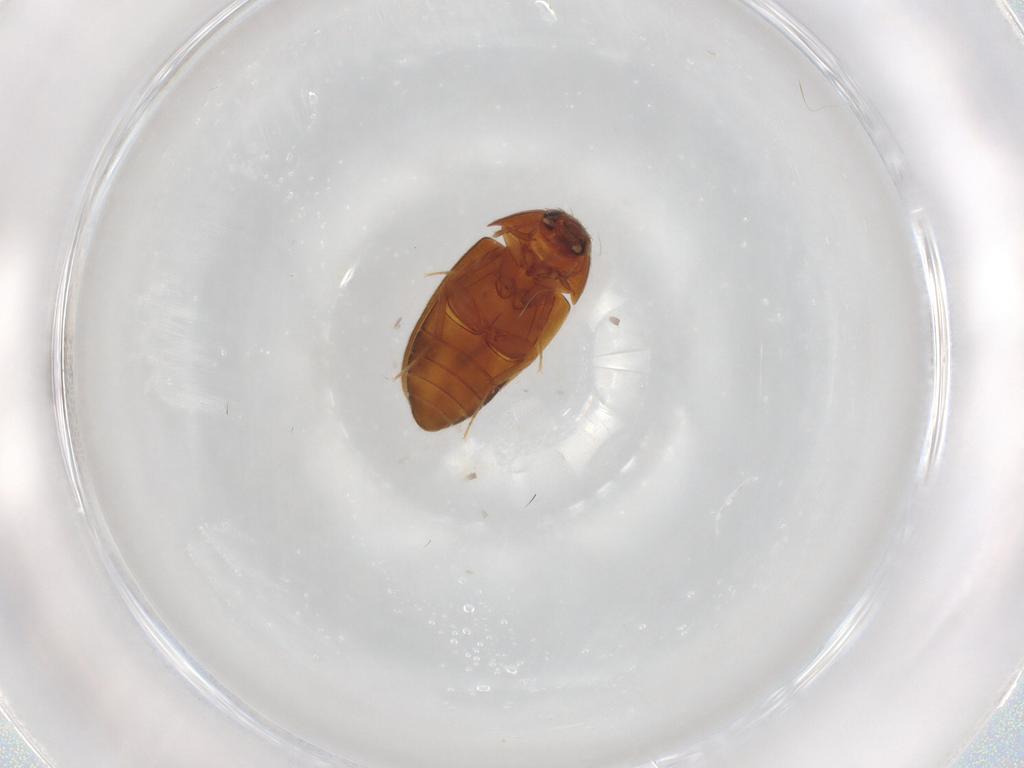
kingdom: Animalia
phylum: Arthropoda
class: Insecta
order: Coleoptera
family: Mycetophagidae
